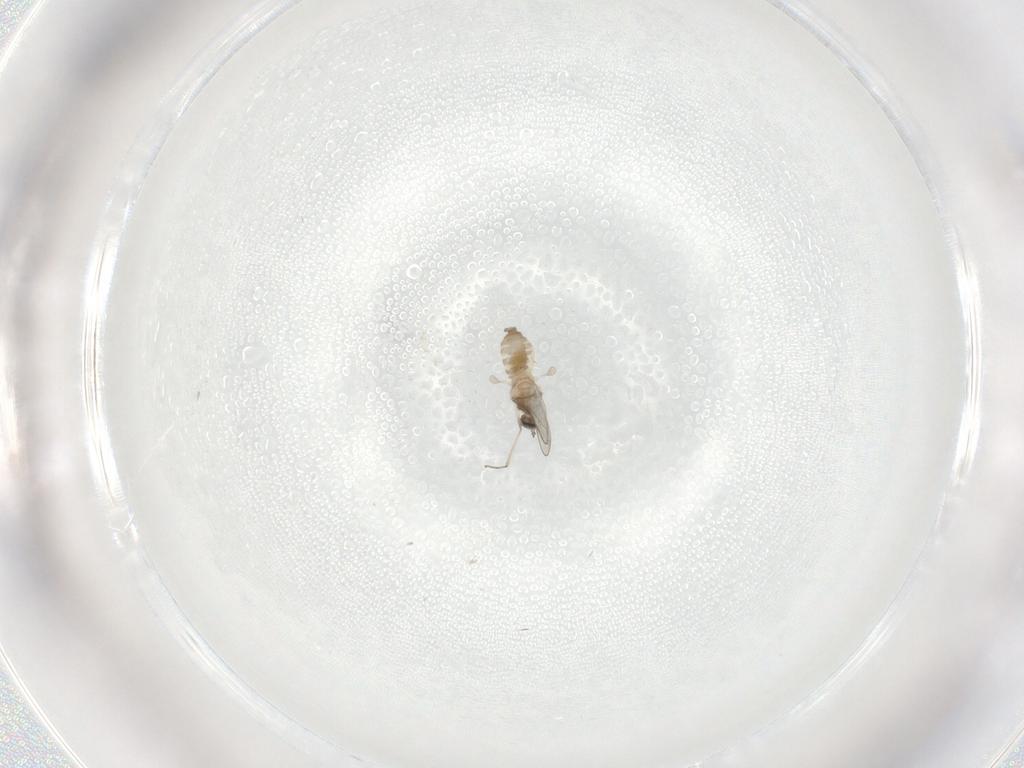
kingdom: Animalia
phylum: Arthropoda
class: Insecta
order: Diptera
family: Cecidomyiidae
